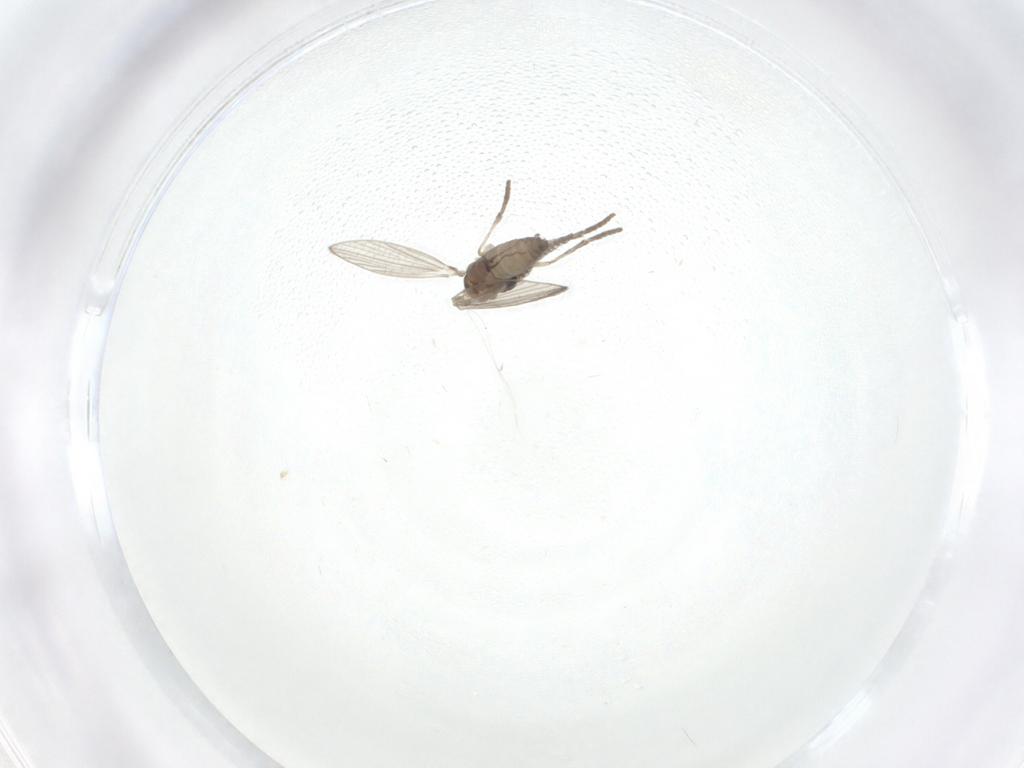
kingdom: Animalia
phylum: Arthropoda
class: Insecta
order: Diptera
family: Psychodidae
